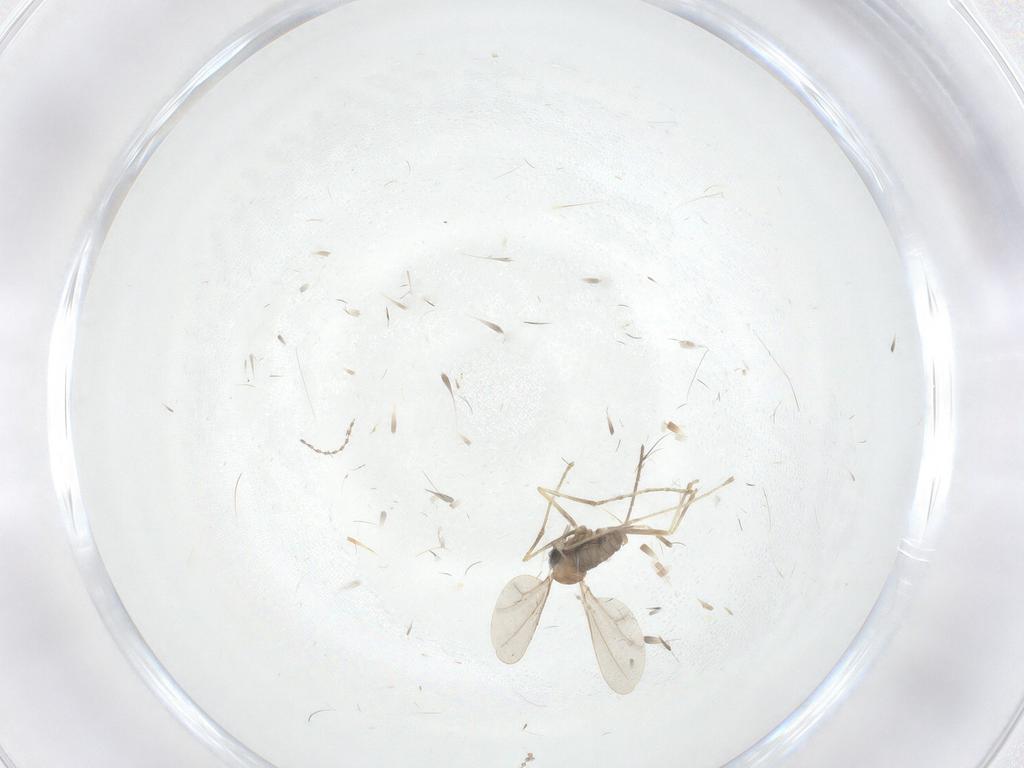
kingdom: Animalia
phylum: Arthropoda
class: Insecta
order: Diptera
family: Cecidomyiidae
